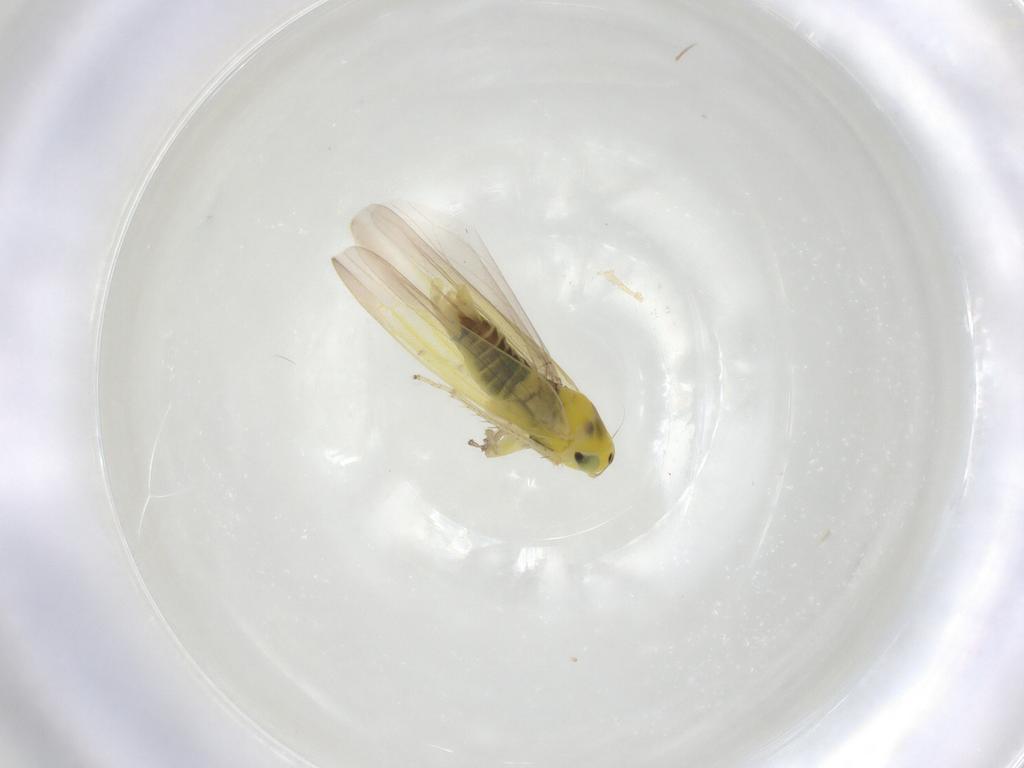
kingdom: Animalia
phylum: Arthropoda
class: Insecta
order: Hemiptera
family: Cicadellidae
